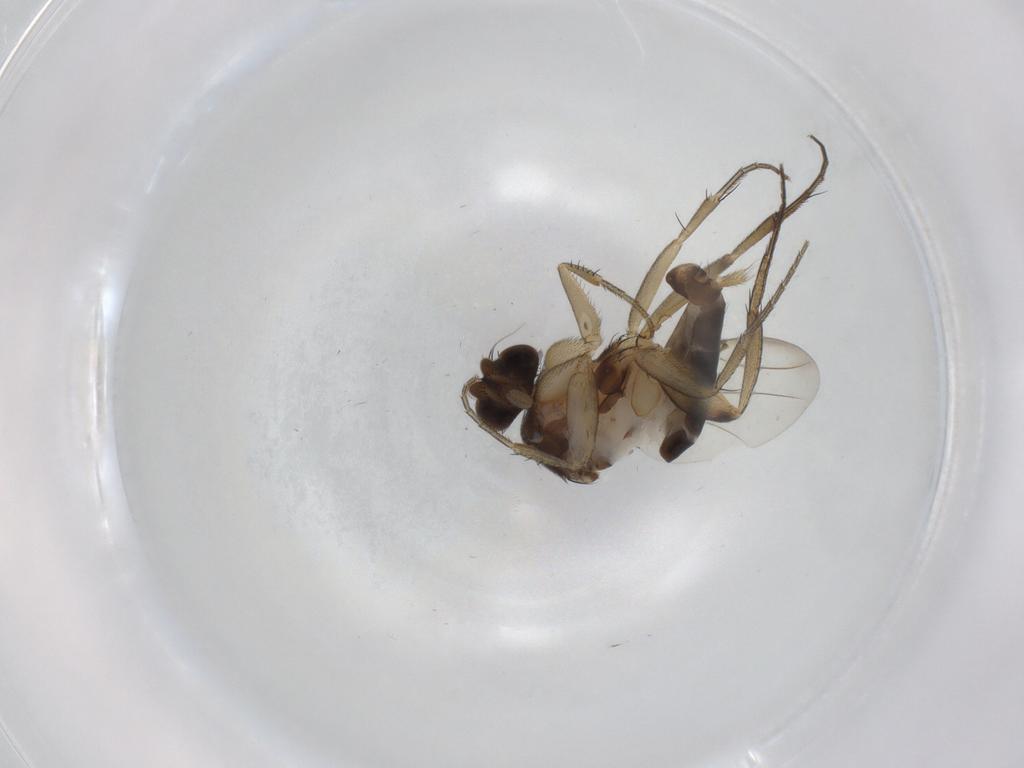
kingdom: Animalia
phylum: Arthropoda
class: Insecta
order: Diptera
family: Phoridae
